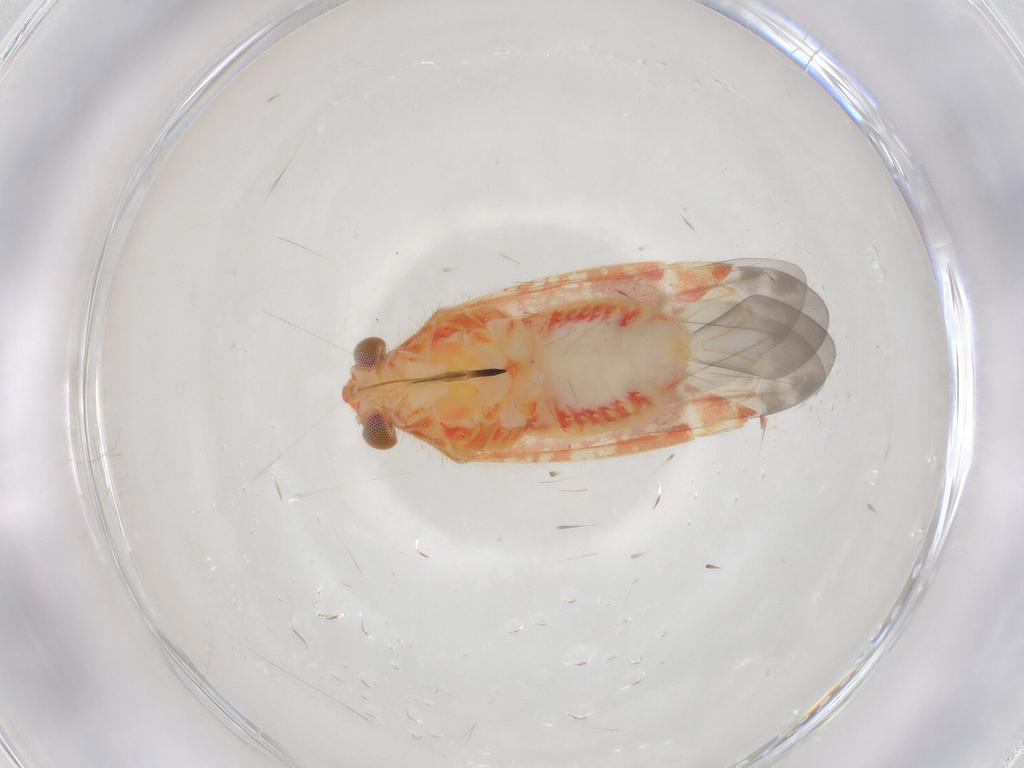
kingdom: Animalia
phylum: Arthropoda
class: Insecta
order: Hemiptera
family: Miridae
